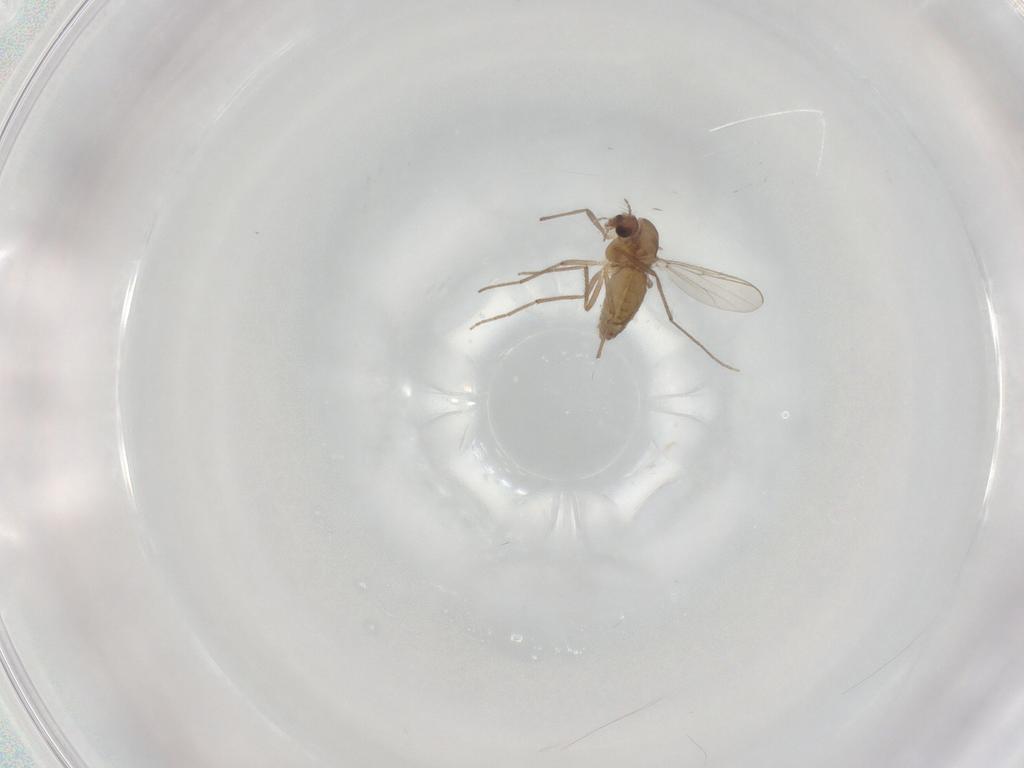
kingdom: Animalia
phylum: Arthropoda
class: Insecta
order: Diptera
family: Chironomidae
